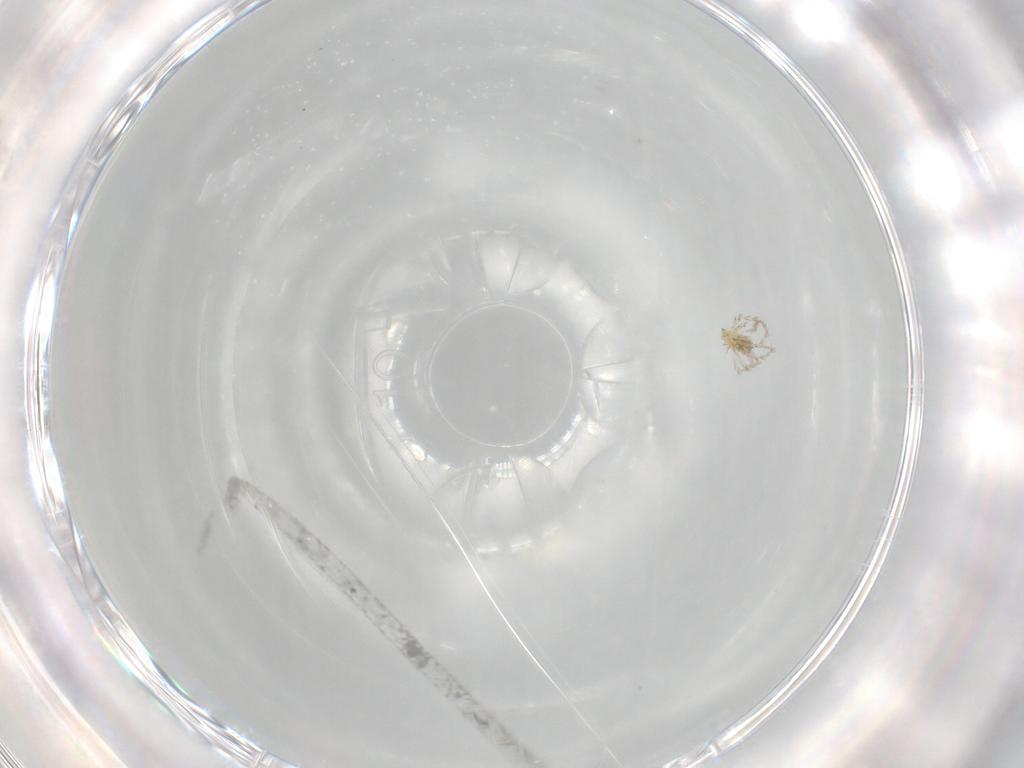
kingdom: Animalia
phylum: Arthropoda
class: Arachnida
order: Trombidiformes
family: Erythraeidae
